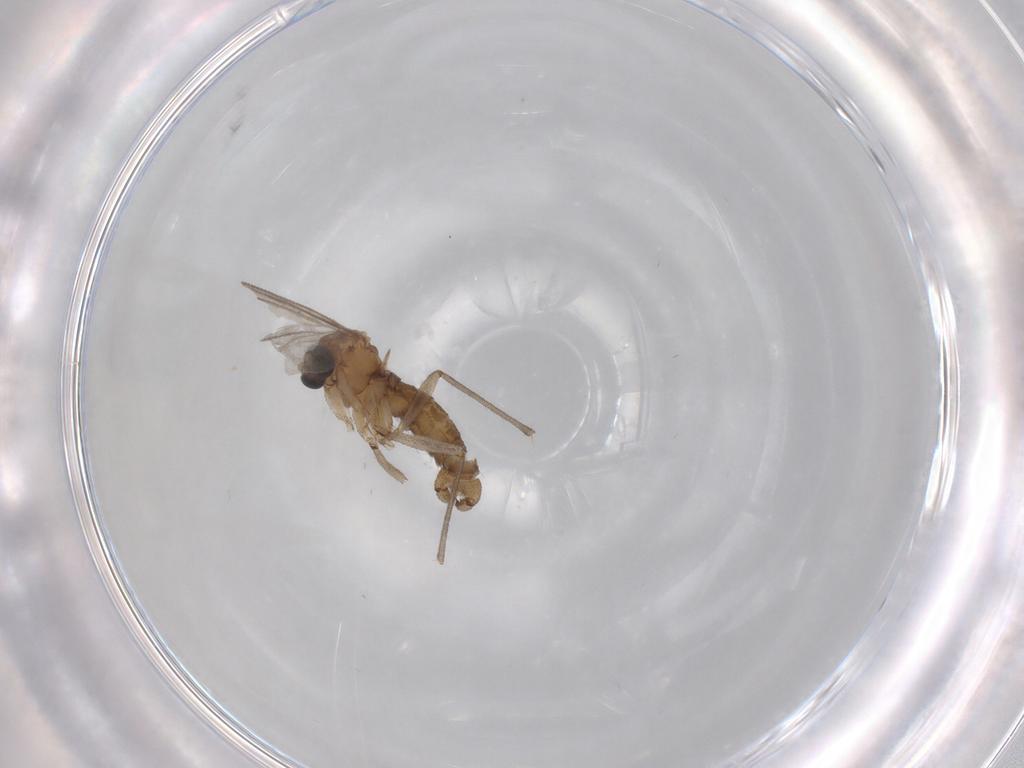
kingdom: Animalia
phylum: Arthropoda
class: Insecta
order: Diptera
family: Sciaridae
